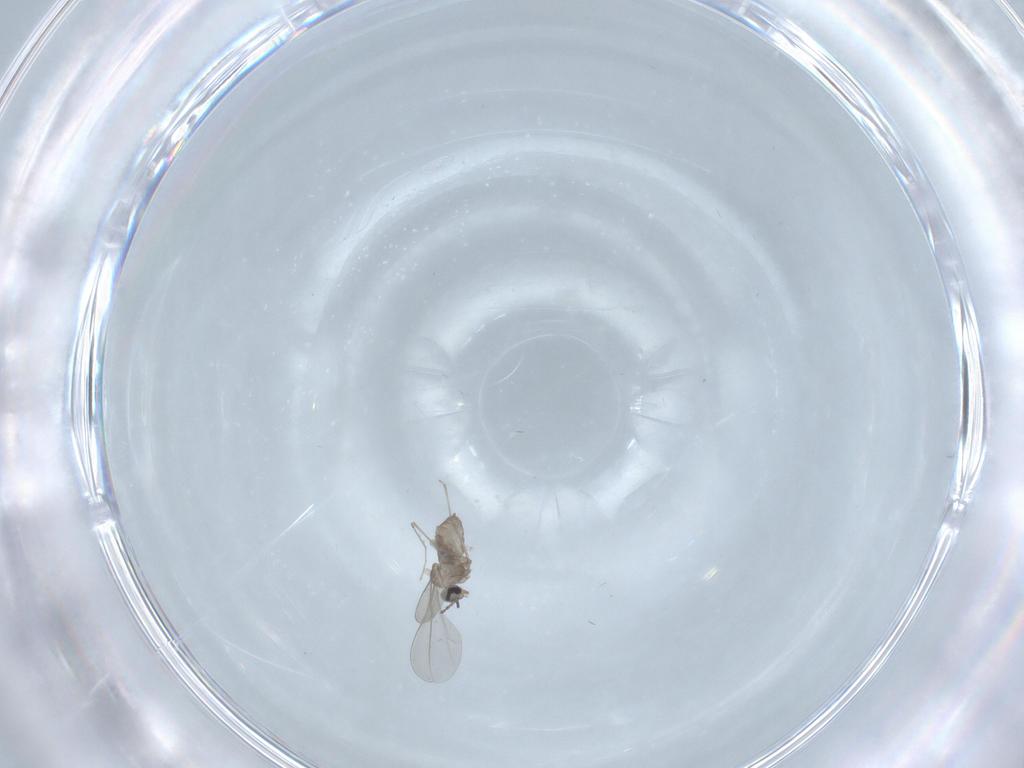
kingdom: Animalia
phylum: Arthropoda
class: Insecta
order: Diptera
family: Cecidomyiidae
